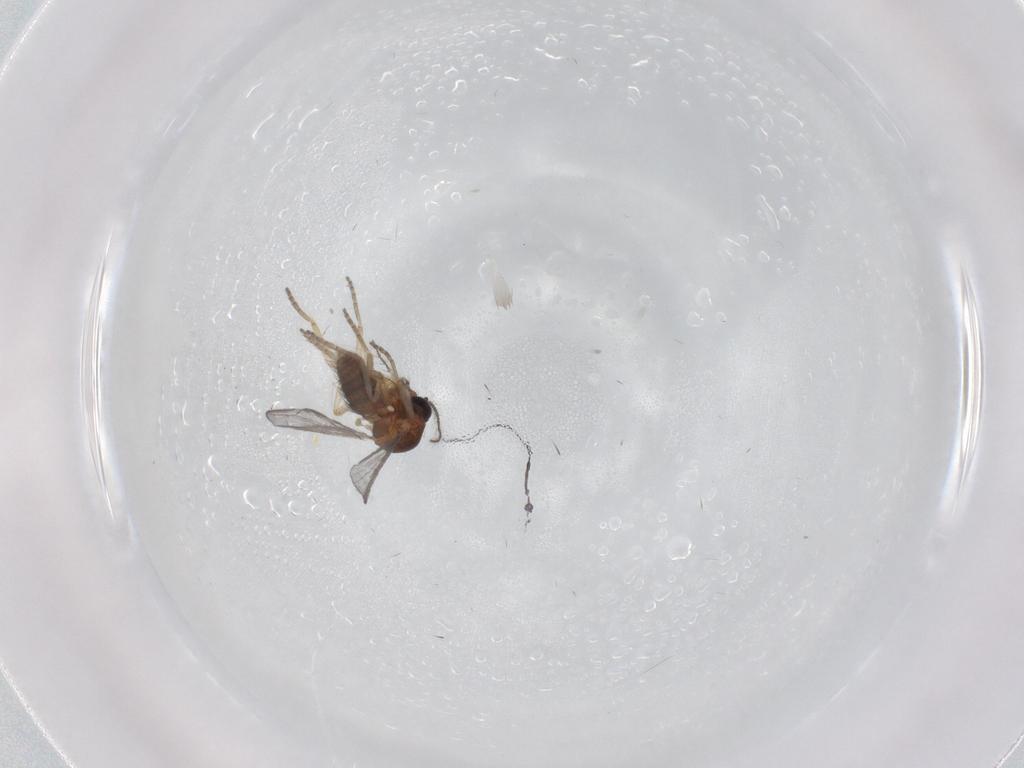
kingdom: Animalia
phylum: Arthropoda
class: Insecta
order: Diptera
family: Ceratopogonidae
